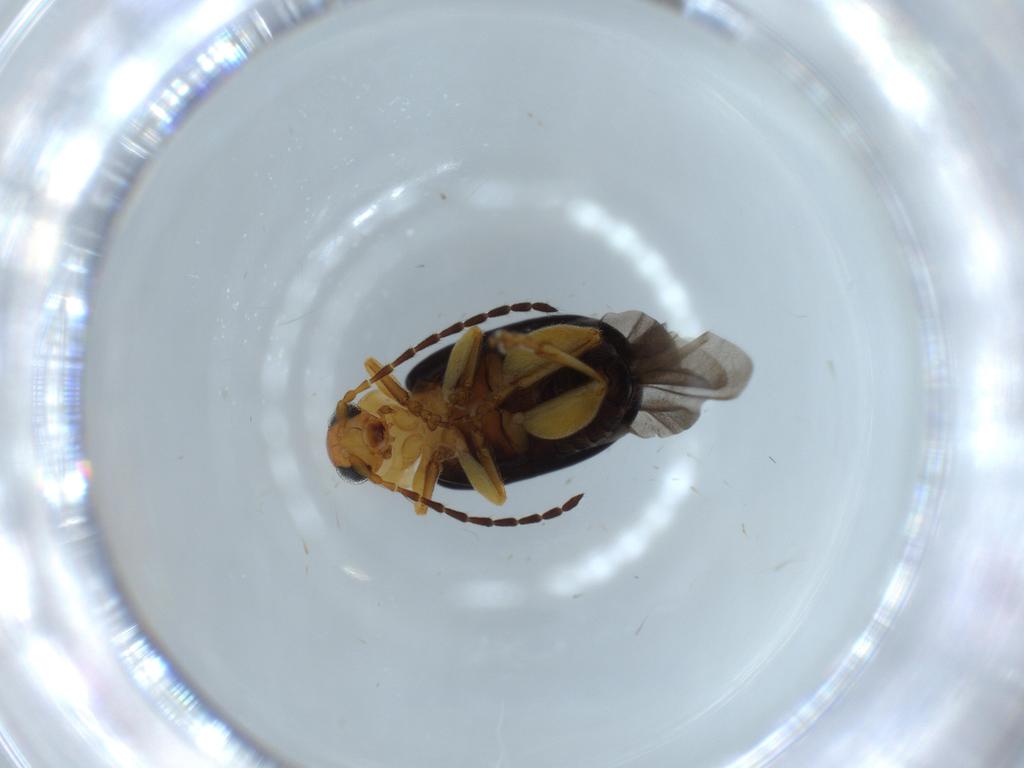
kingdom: Animalia
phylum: Arthropoda
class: Insecta
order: Coleoptera
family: Chrysomelidae
